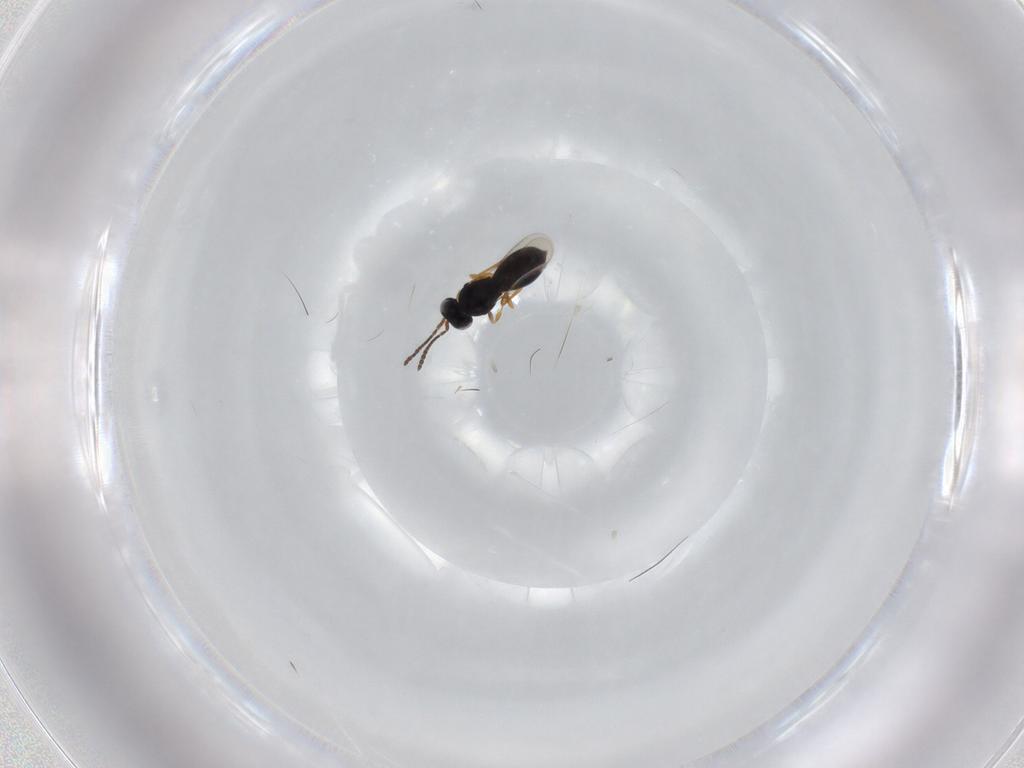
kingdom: Animalia
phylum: Arthropoda
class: Insecta
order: Hymenoptera
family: Scelionidae
